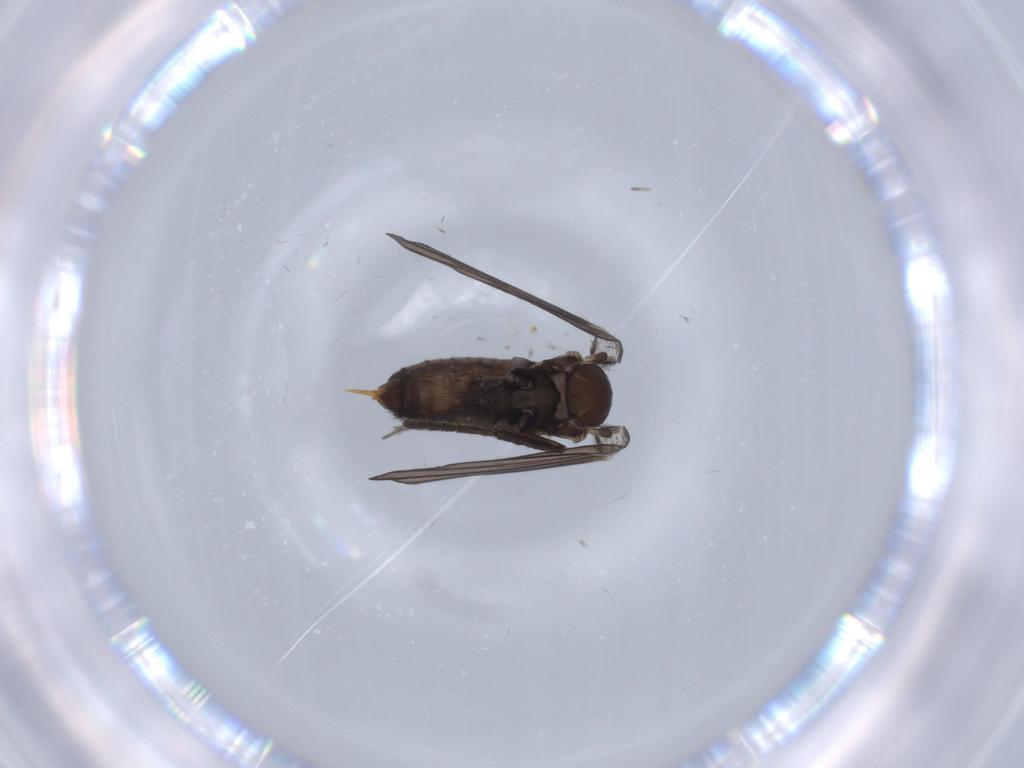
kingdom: Animalia
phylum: Arthropoda
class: Insecta
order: Diptera
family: Psychodidae
